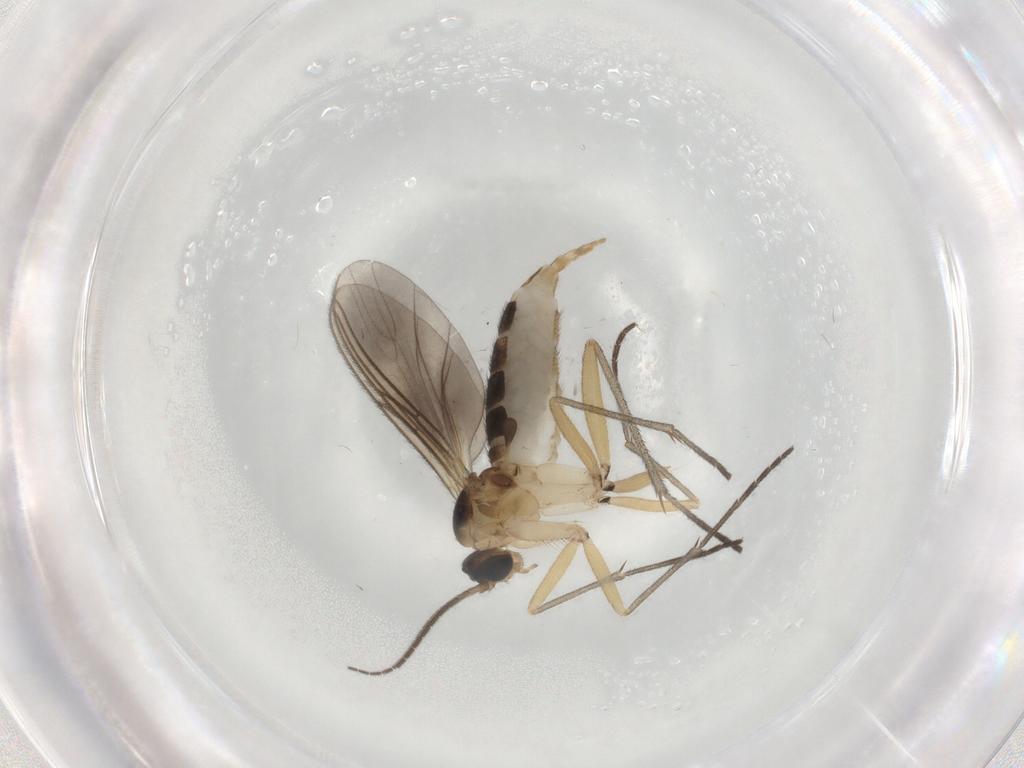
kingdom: Animalia
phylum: Arthropoda
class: Insecta
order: Diptera
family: Sciaridae
